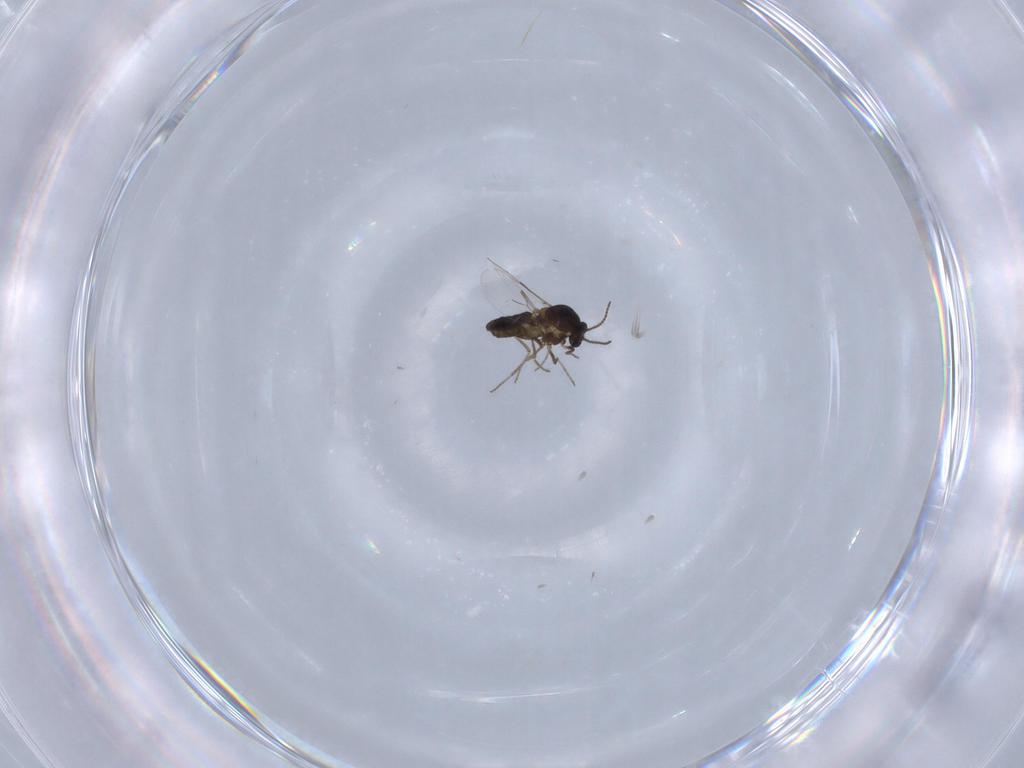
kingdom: Animalia
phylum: Arthropoda
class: Insecta
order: Diptera
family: Ceratopogonidae
